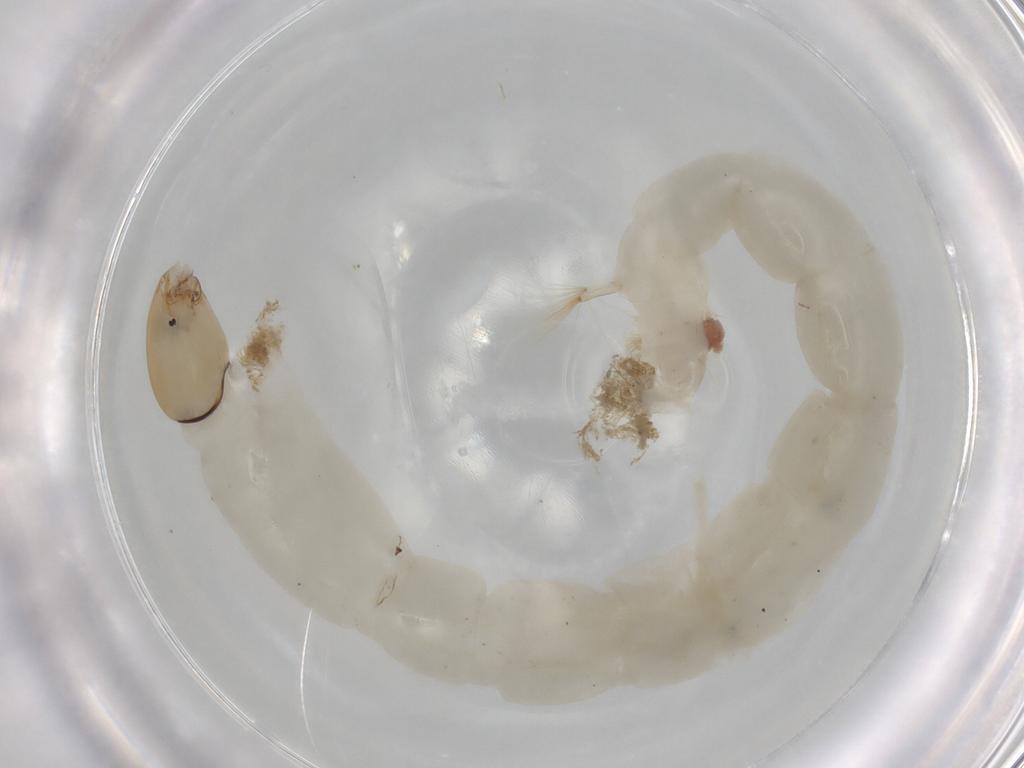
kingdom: Animalia
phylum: Arthropoda
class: Insecta
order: Diptera
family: Chironomidae
